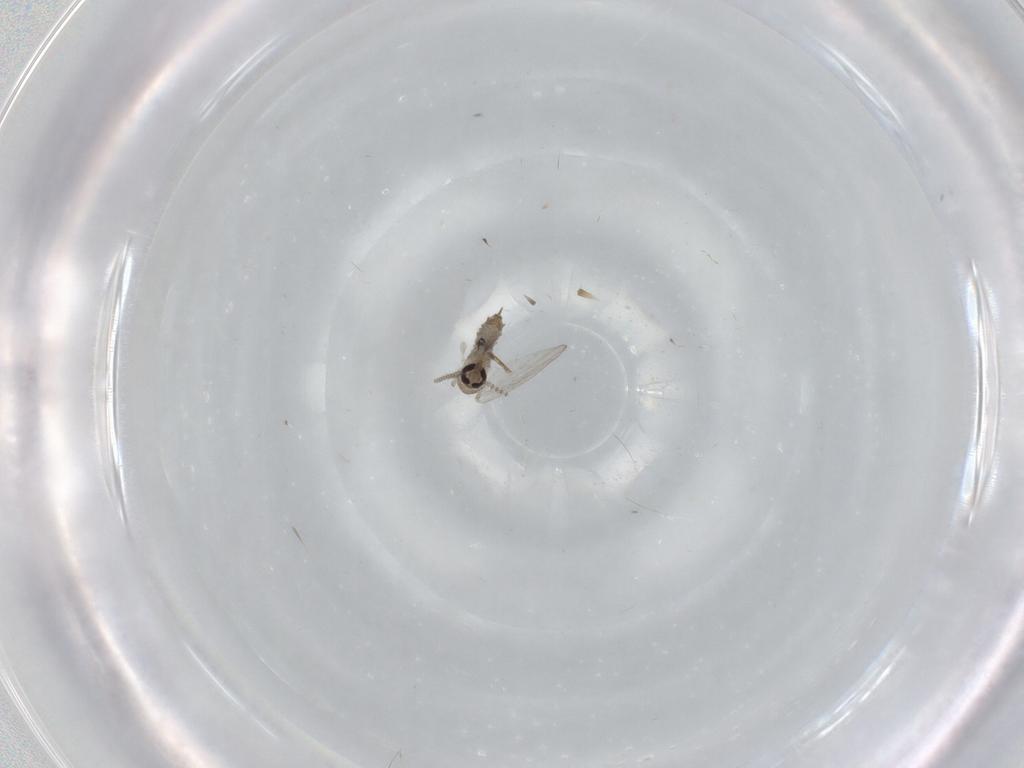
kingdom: Animalia
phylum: Arthropoda
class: Insecta
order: Diptera
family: Psychodidae
